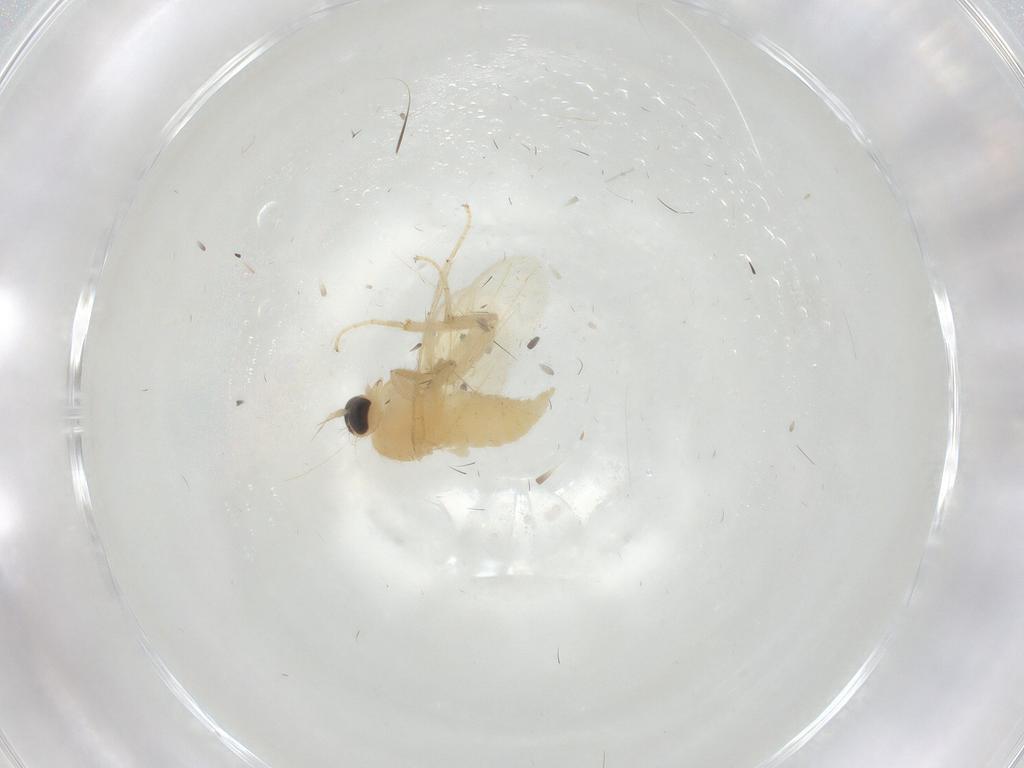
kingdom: Animalia
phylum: Arthropoda
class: Insecta
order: Diptera
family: Hybotidae
